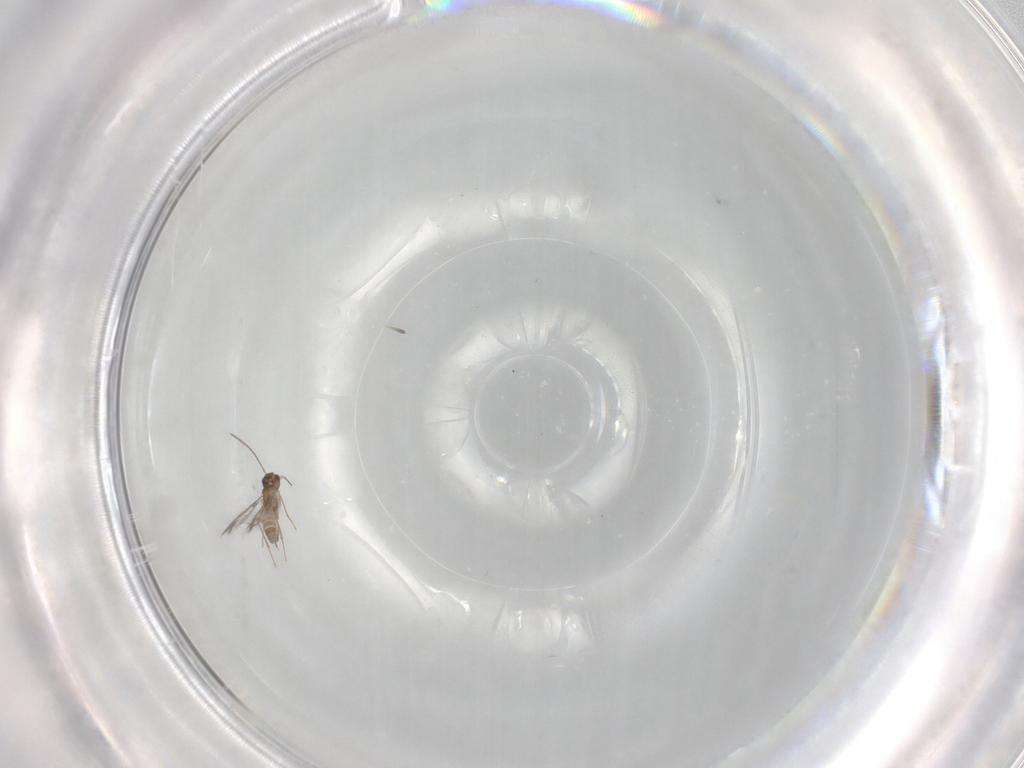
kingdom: Animalia
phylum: Arthropoda
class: Insecta
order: Hymenoptera
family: Mymaridae
